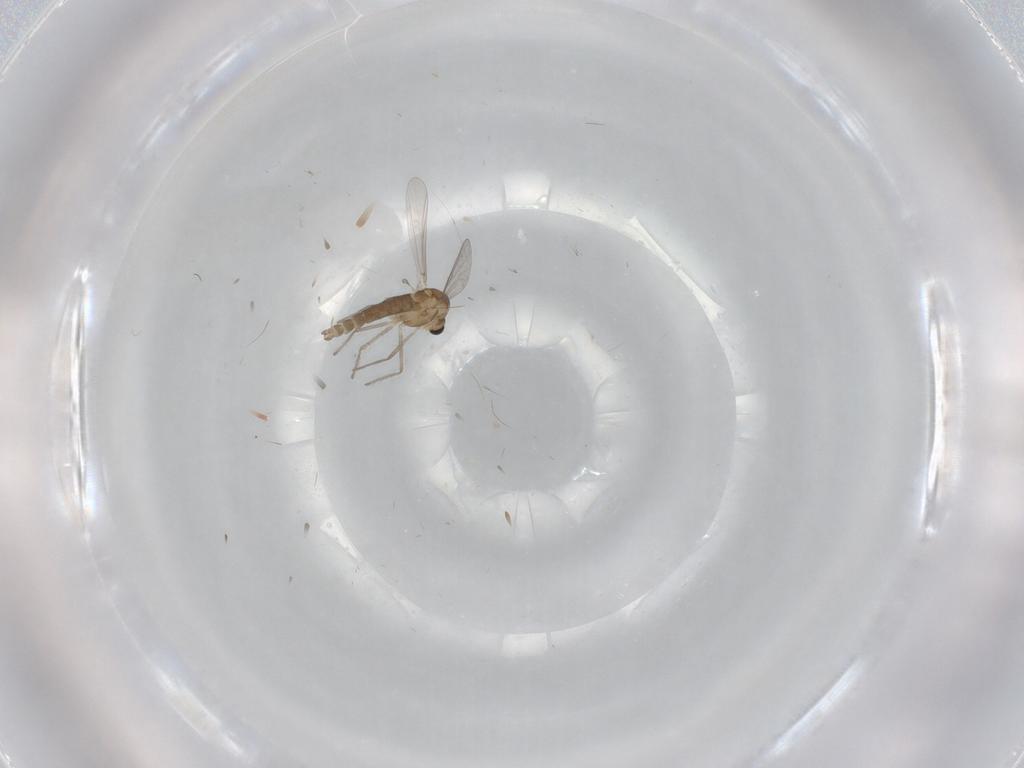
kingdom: Animalia
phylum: Arthropoda
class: Insecta
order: Diptera
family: Chironomidae
